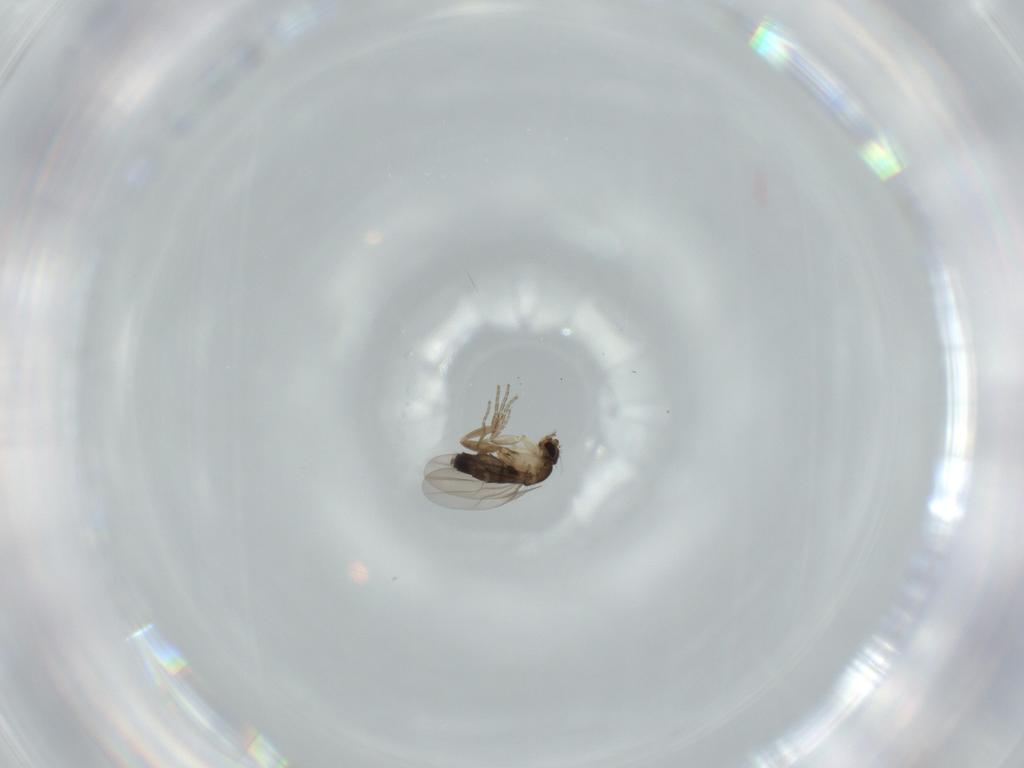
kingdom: Animalia
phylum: Arthropoda
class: Insecta
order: Diptera
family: Phoridae
